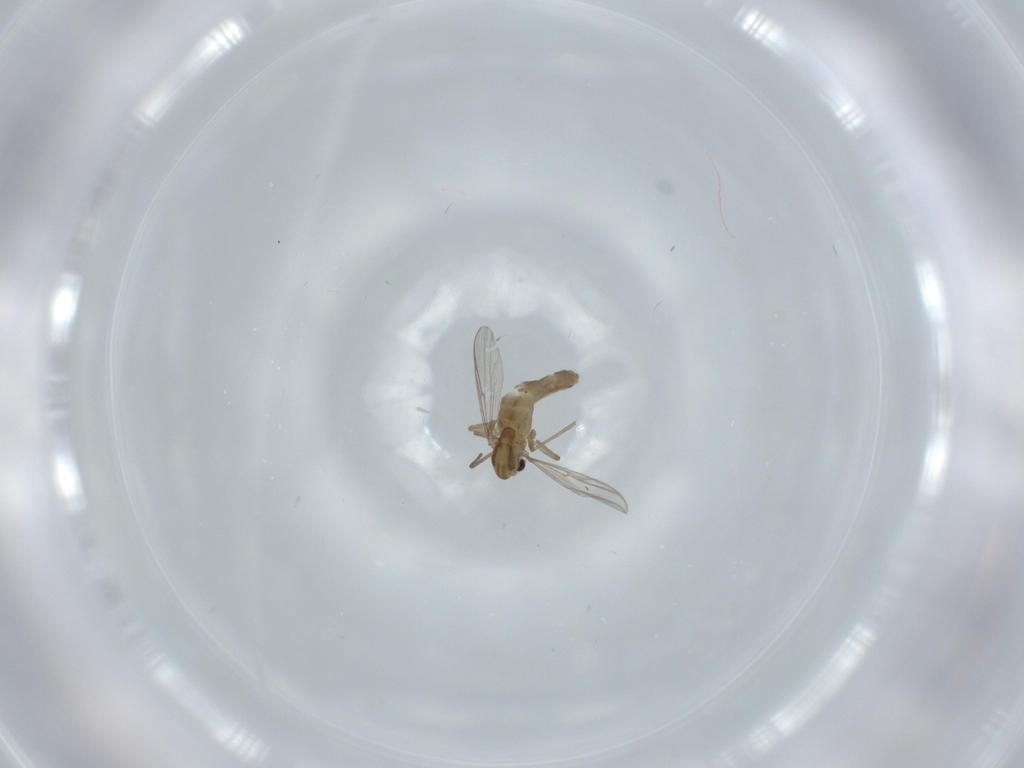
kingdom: Animalia
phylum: Arthropoda
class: Insecta
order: Diptera
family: Chironomidae
